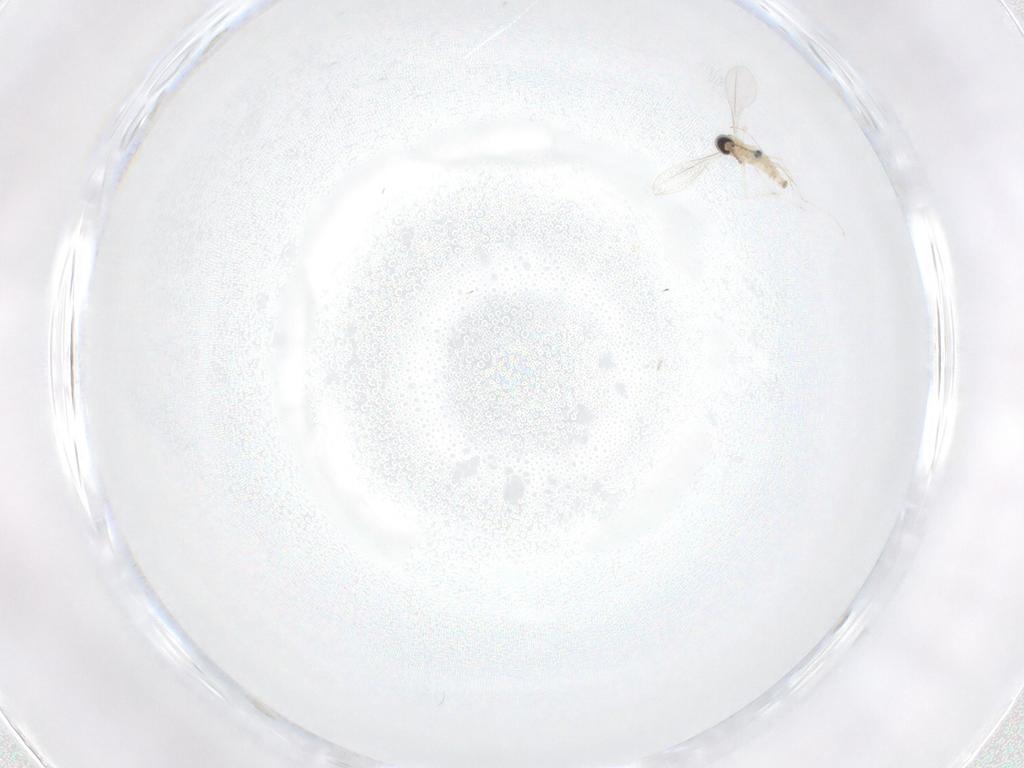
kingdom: Animalia
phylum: Arthropoda
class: Insecta
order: Diptera
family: Cecidomyiidae
